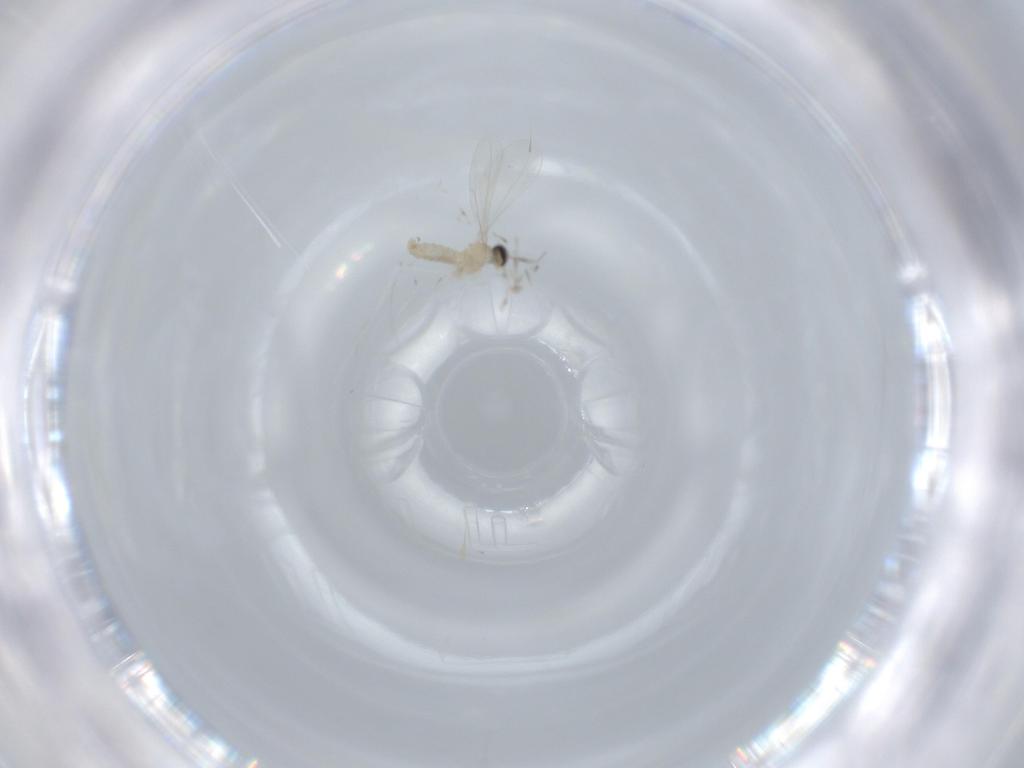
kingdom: Animalia
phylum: Arthropoda
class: Insecta
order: Diptera
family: Cecidomyiidae
